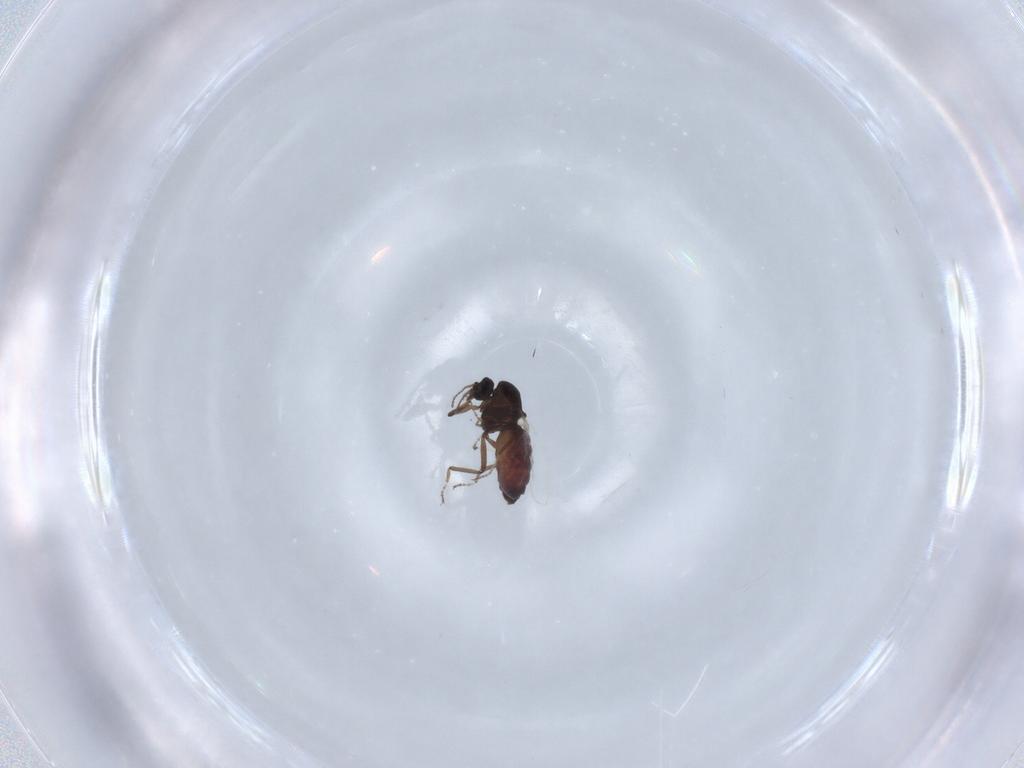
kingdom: Animalia
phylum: Arthropoda
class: Insecta
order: Diptera
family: Ceratopogonidae
